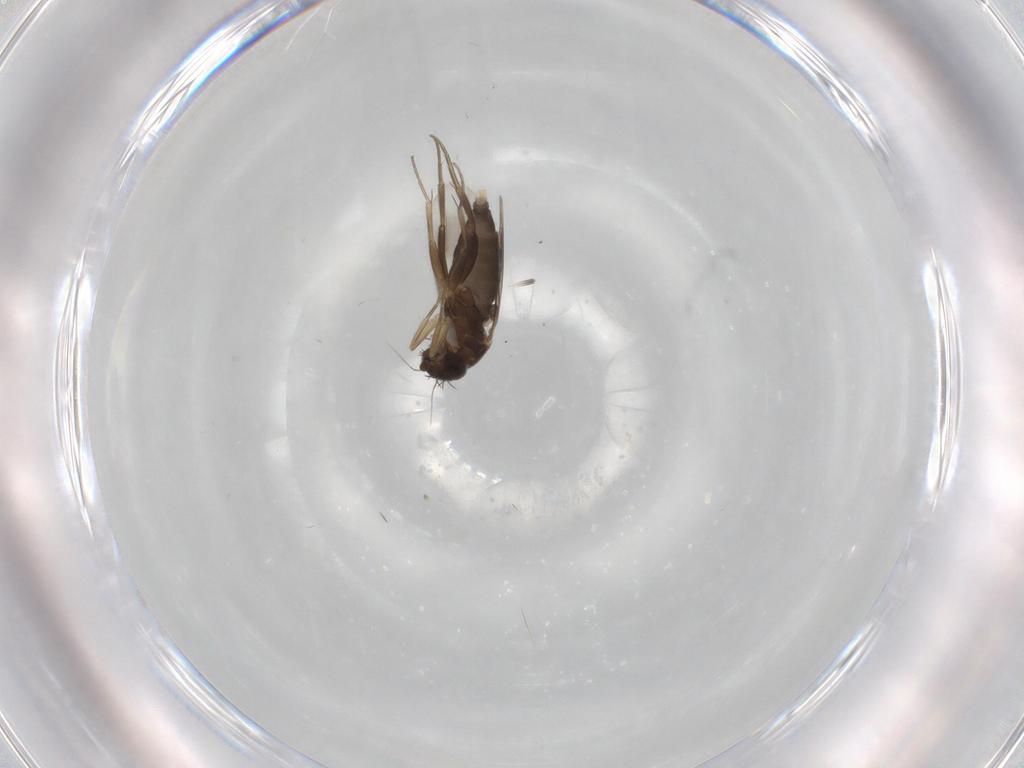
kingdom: Animalia
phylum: Arthropoda
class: Insecta
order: Diptera
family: Phoridae
